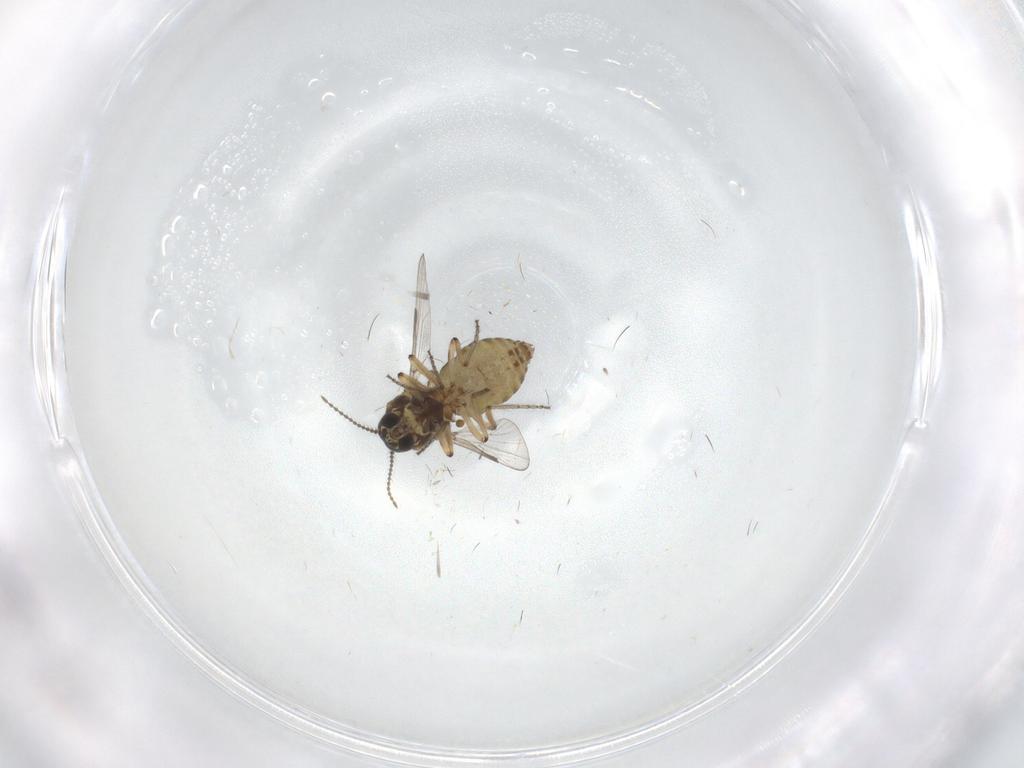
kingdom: Animalia
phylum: Arthropoda
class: Insecta
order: Diptera
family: Ceratopogonidae
